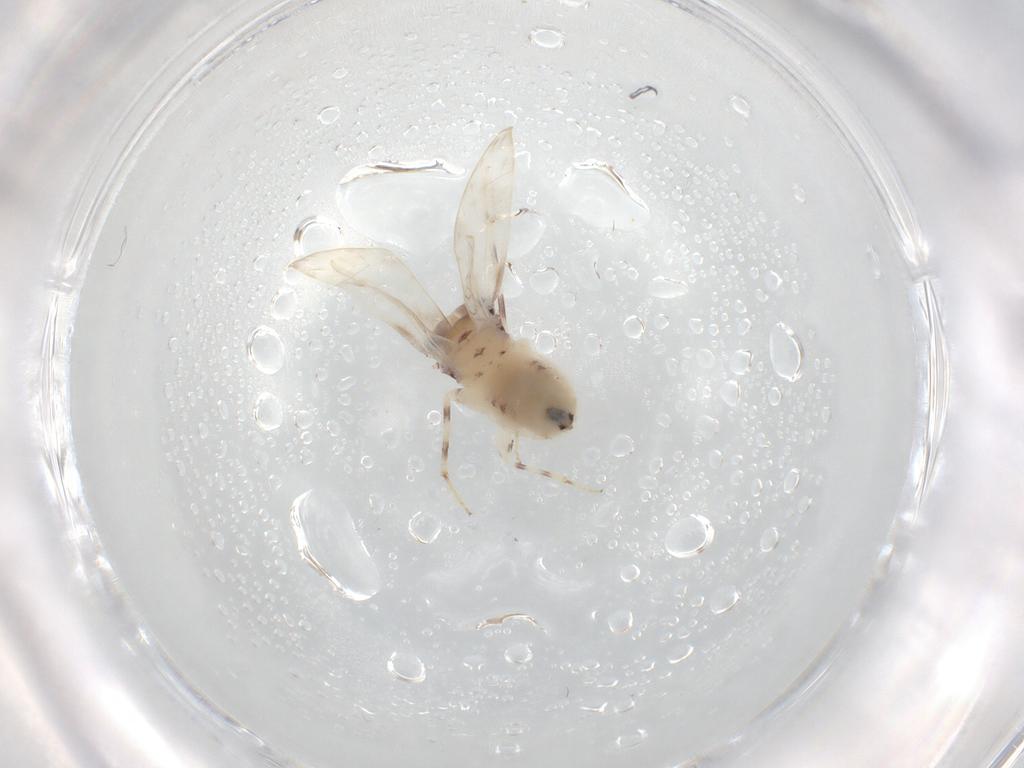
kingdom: Animalia
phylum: Arthropoda
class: Insecta
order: Psocodea
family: Lepidopsocidae
